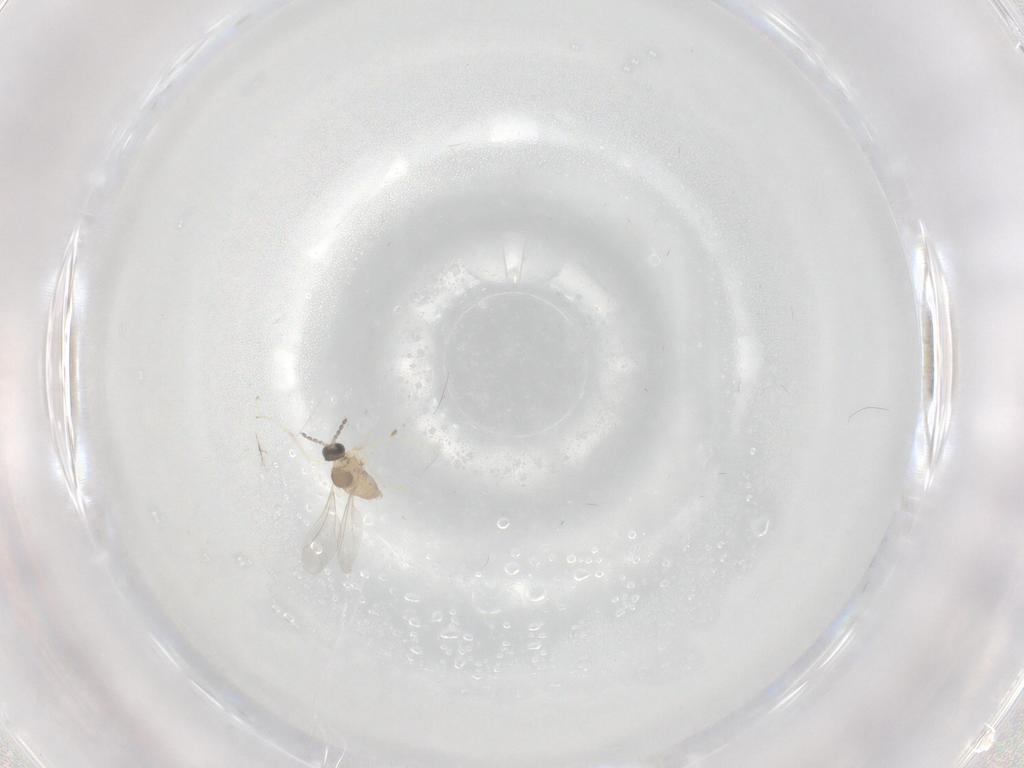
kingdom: Animalia
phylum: Arthropoda
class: Insecta
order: Diptera
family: Cecidomyiidae
